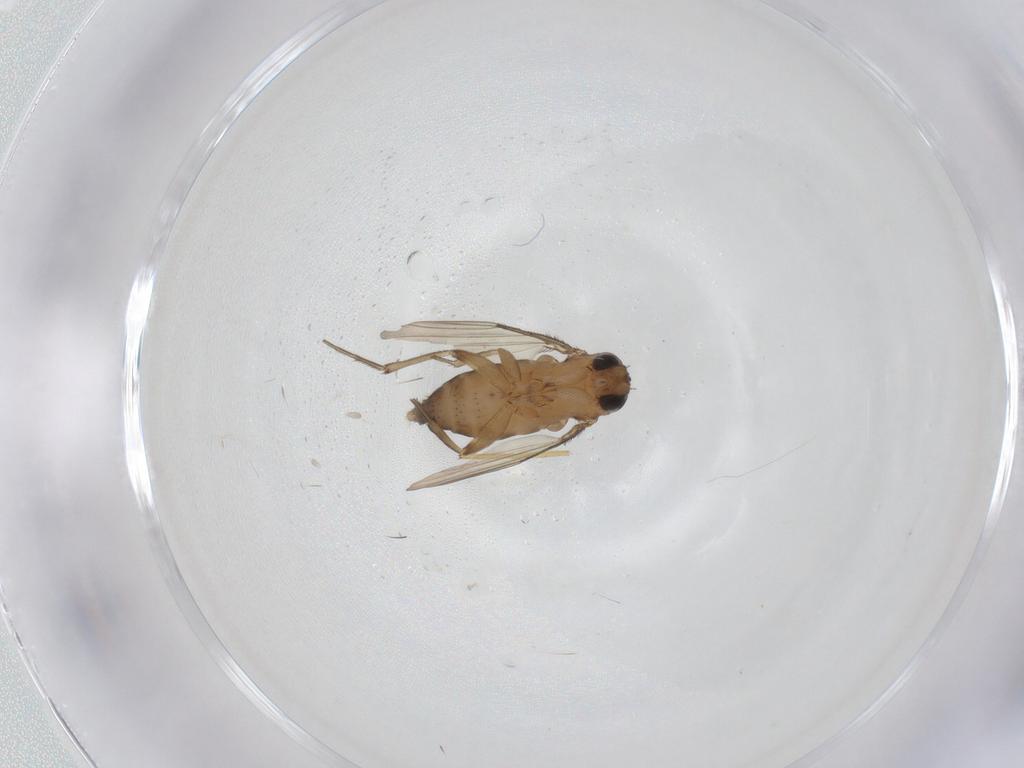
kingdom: Animalia
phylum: Arthropoda
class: Insecta
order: Diptera
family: Phoridae
